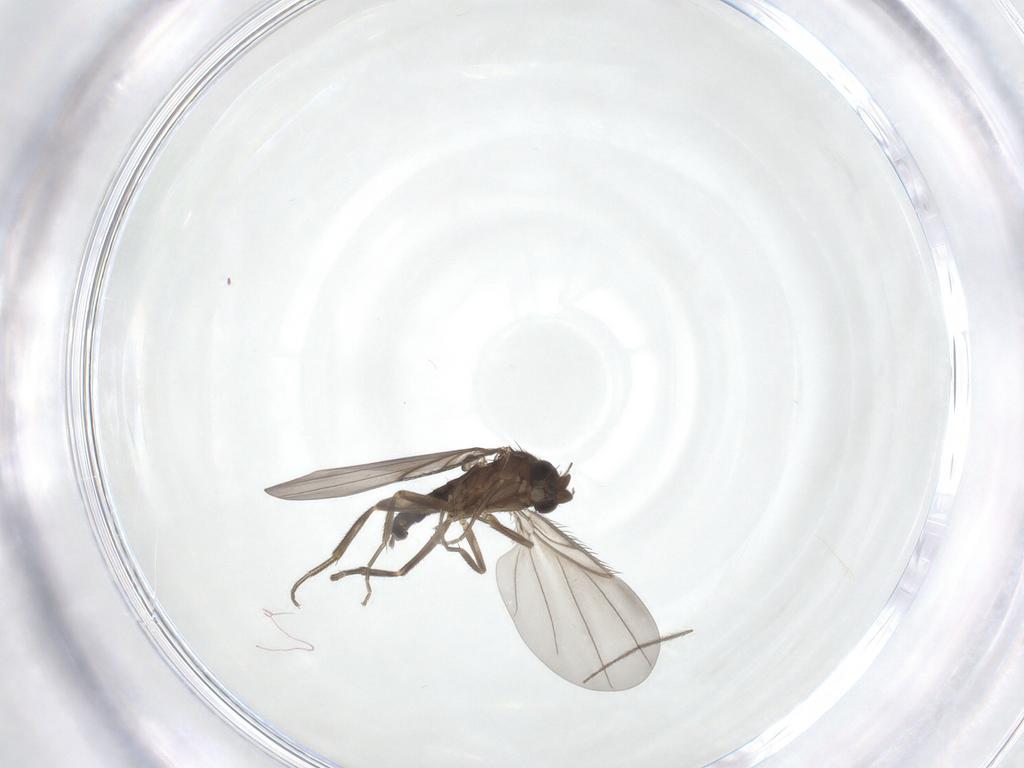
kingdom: Animalia
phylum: Arthropoda
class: Insecta
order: Diptera
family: Chironomidae
